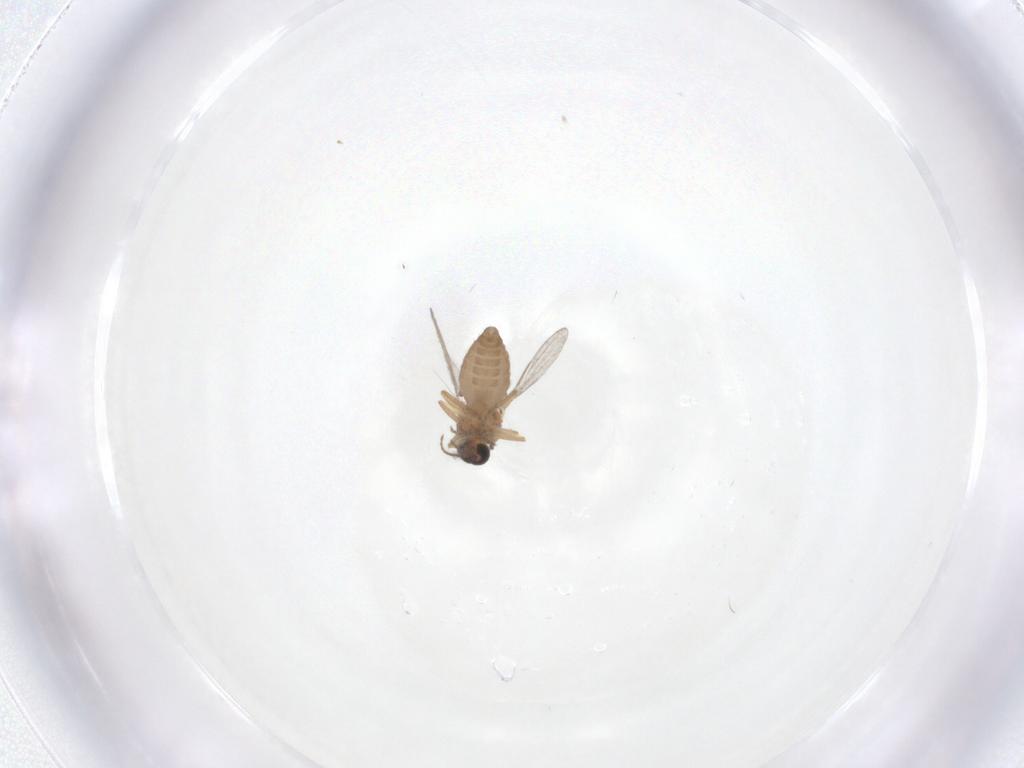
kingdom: Animalia
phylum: Arthropoda
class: Insecta
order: Diptera
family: Ceratopogonidae
